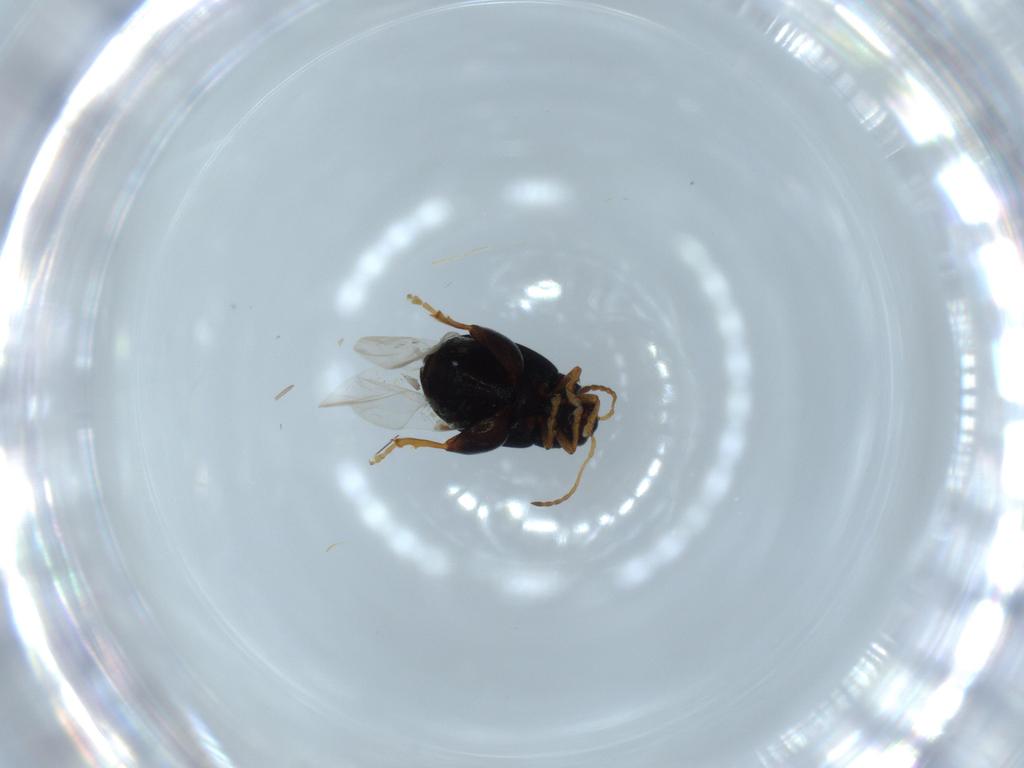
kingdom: Animalia
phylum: Arthropoda
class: Insecta
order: Coleoptera
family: Chrysomelidae
